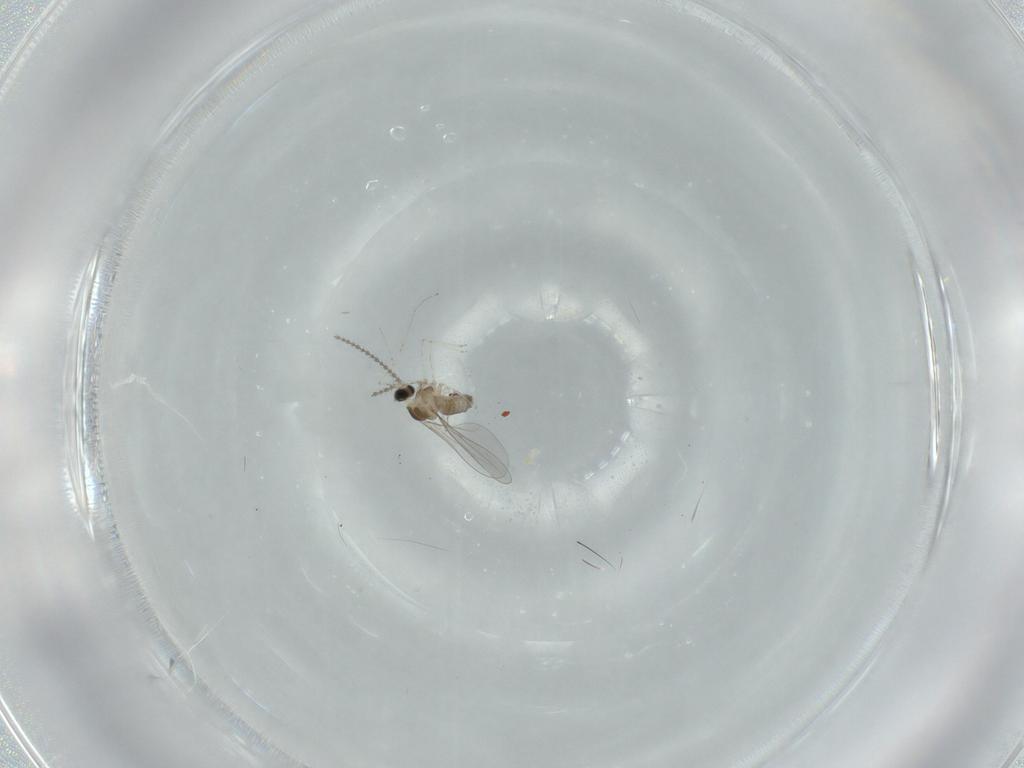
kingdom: Animalia
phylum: Arthropoda
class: Insecta
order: Diptera
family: Cecidomyiidae
